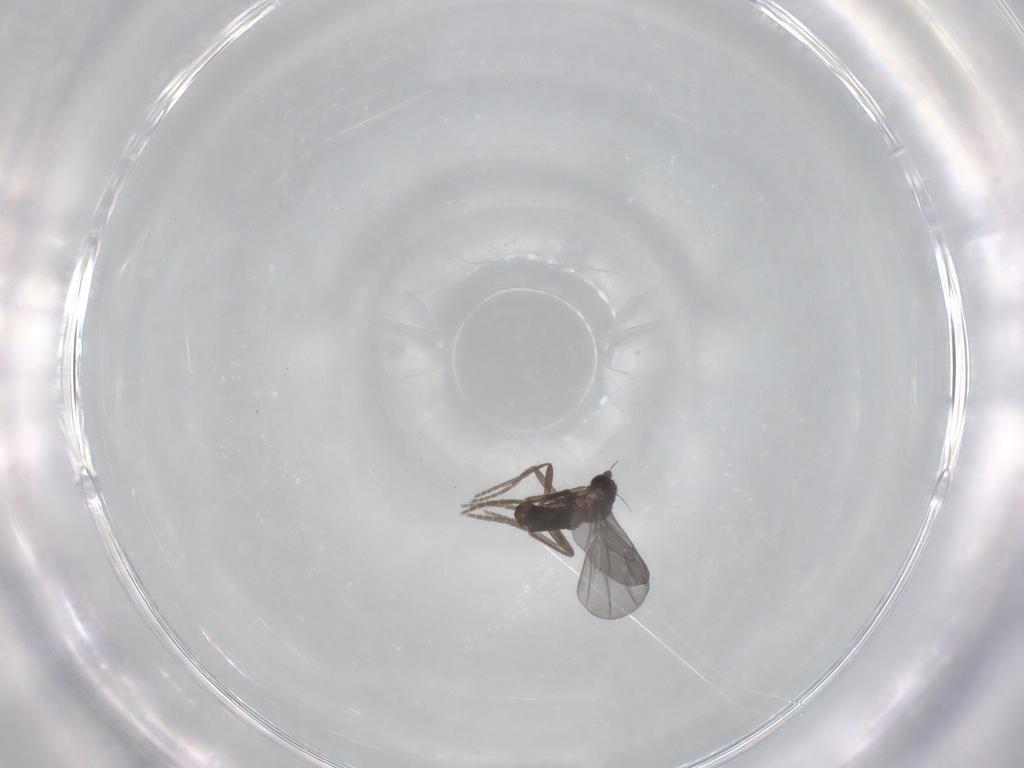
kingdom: Animalia
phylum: Arthropoda
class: Insecta
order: Diptera
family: Phoridae
